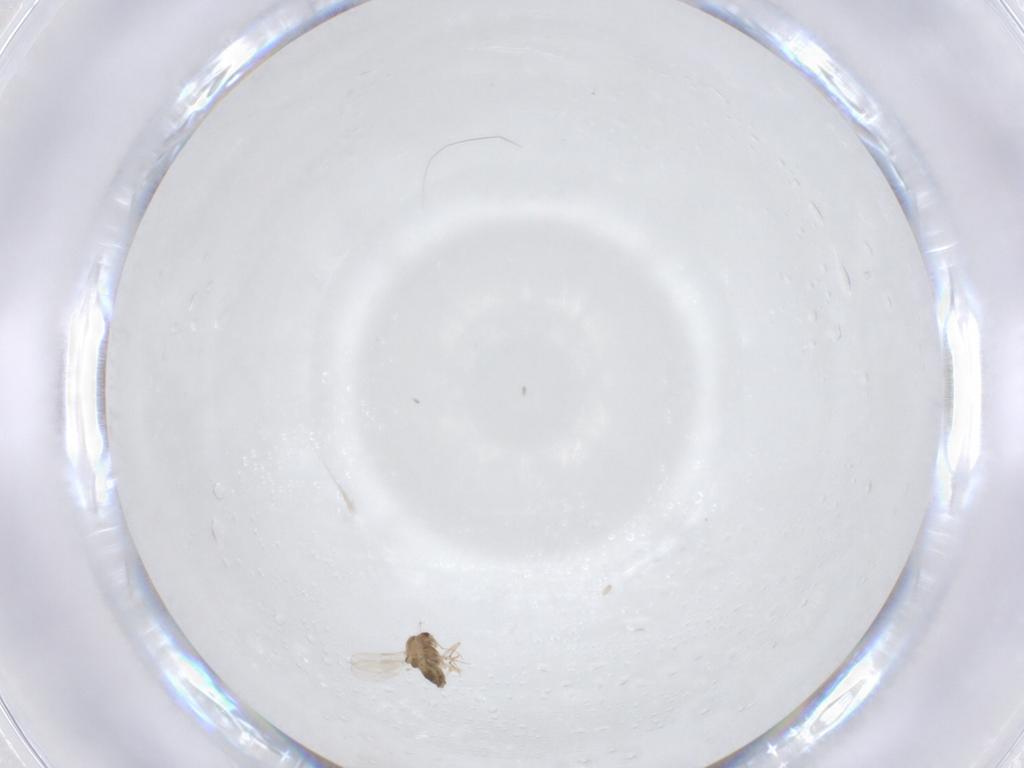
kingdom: Animalia
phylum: Arthropoda
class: Insecta
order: Diptera
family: Chironomidae
